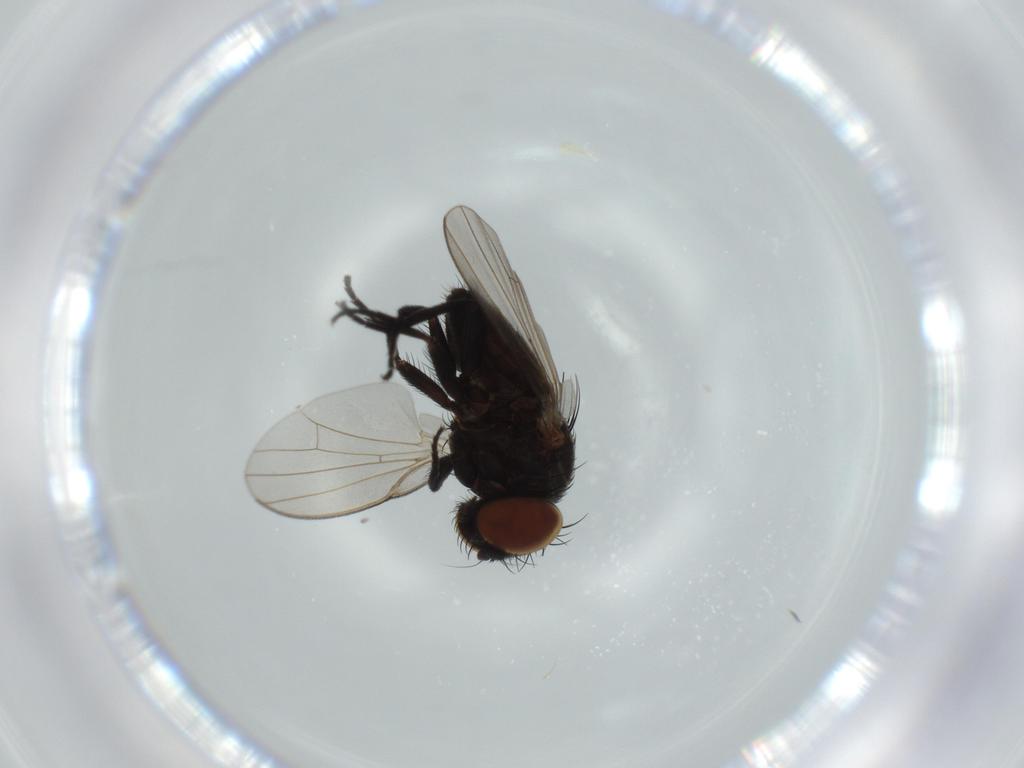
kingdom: Animalia
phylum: Arthropoda
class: Insecta
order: Diptera
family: Milichiidae
